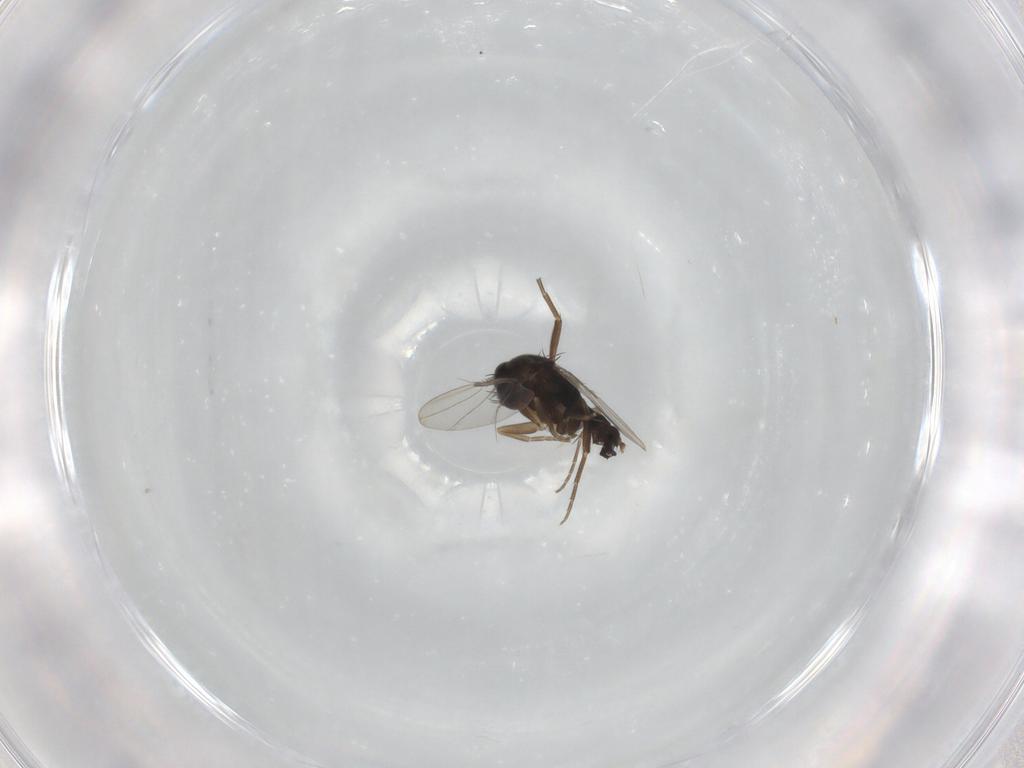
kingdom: Animalia
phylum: Arthropoda
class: Insecta
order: Diptera
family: Phoridae
